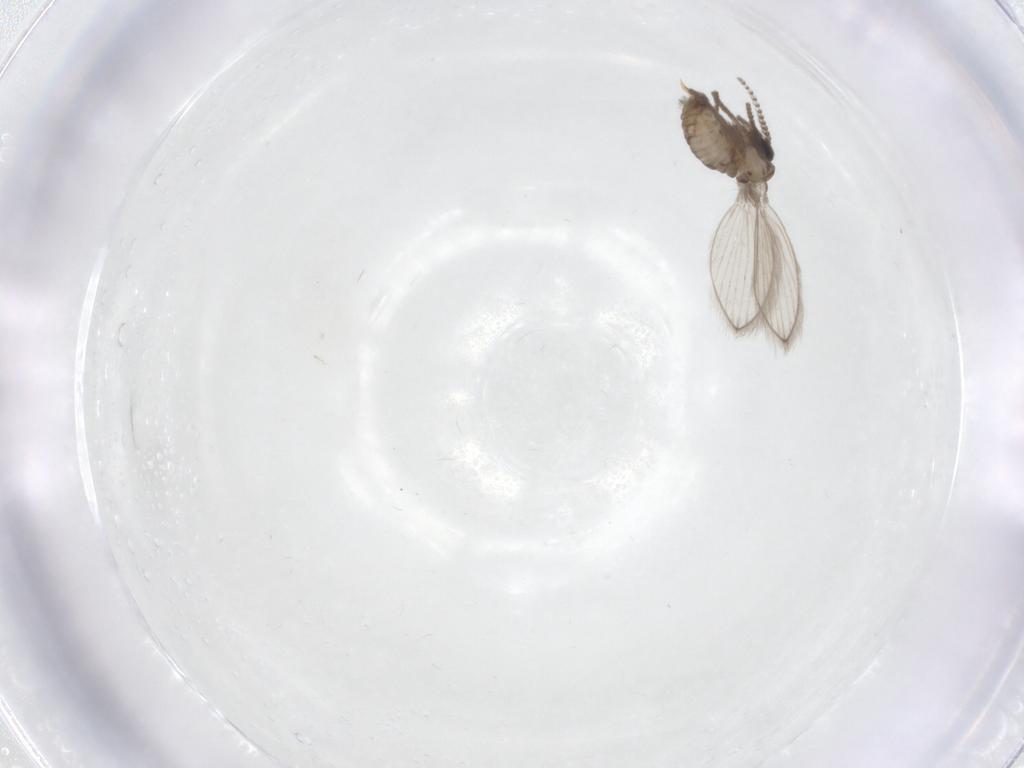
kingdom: Animalia
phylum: Arthropoda
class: Insecta
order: Diptera
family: Psychodidae
